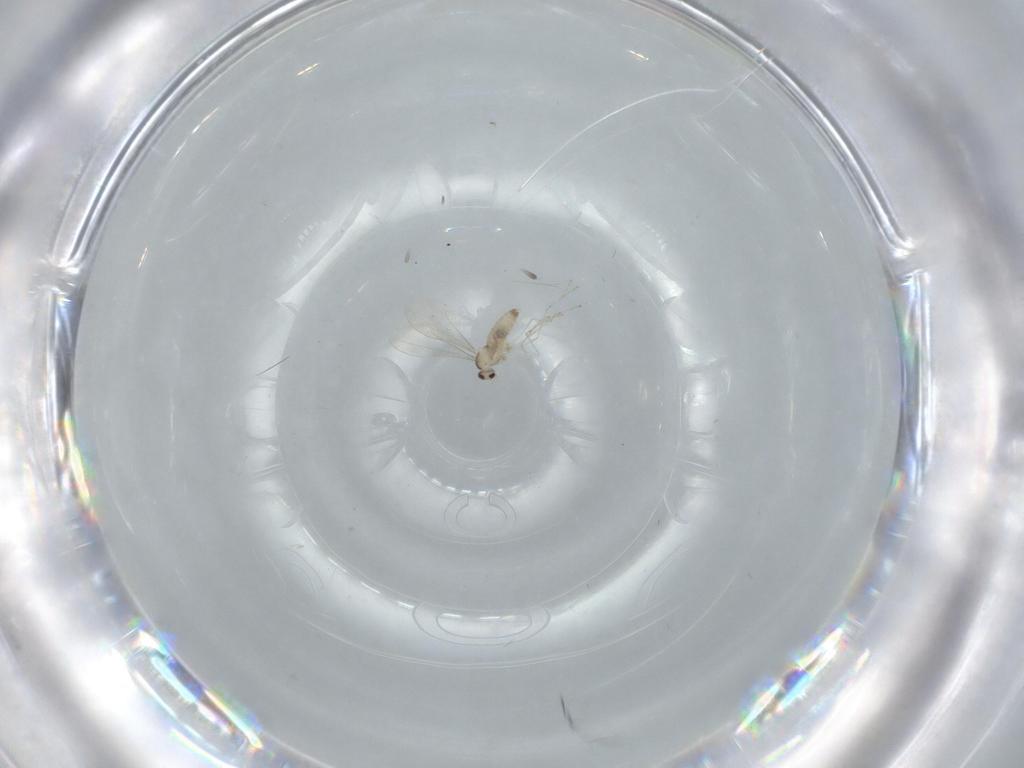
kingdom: Animalia
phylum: Arthropoda
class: Insecta
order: Diptera
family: Cecidomyiidae
